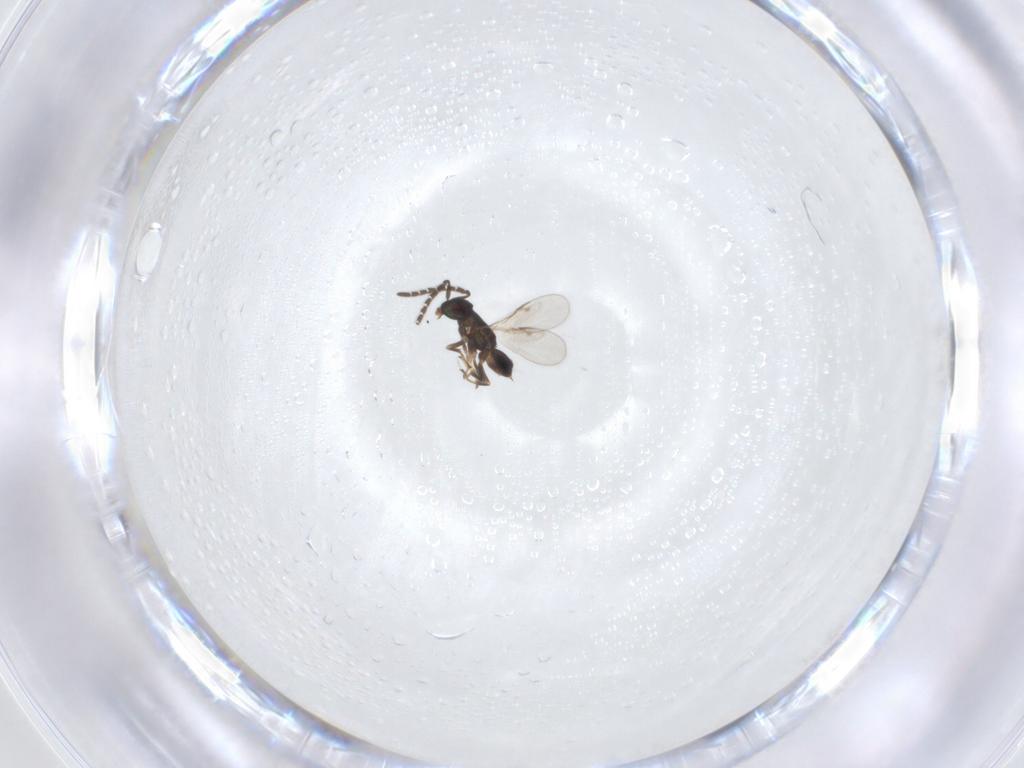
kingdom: Animalia
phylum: Arthropoda
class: Insecta
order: Hymenoptera
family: Encyrtidae
